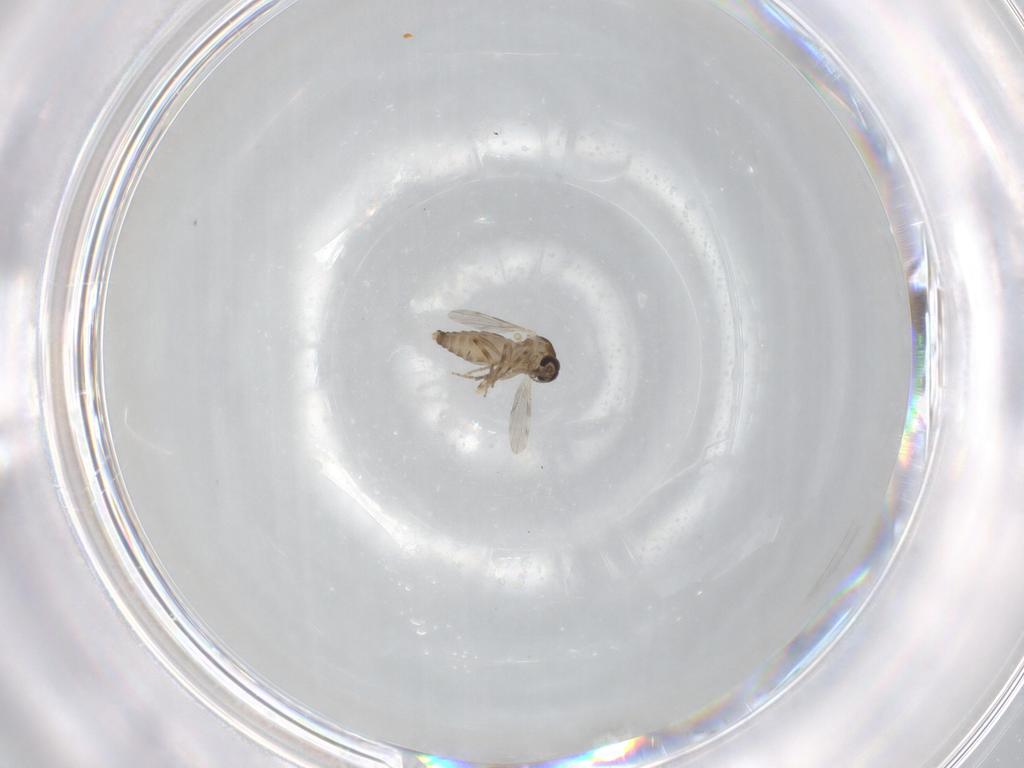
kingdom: Animalia
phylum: Arthropoda
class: Insecta
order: Diptera
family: Ceratopogonidae
